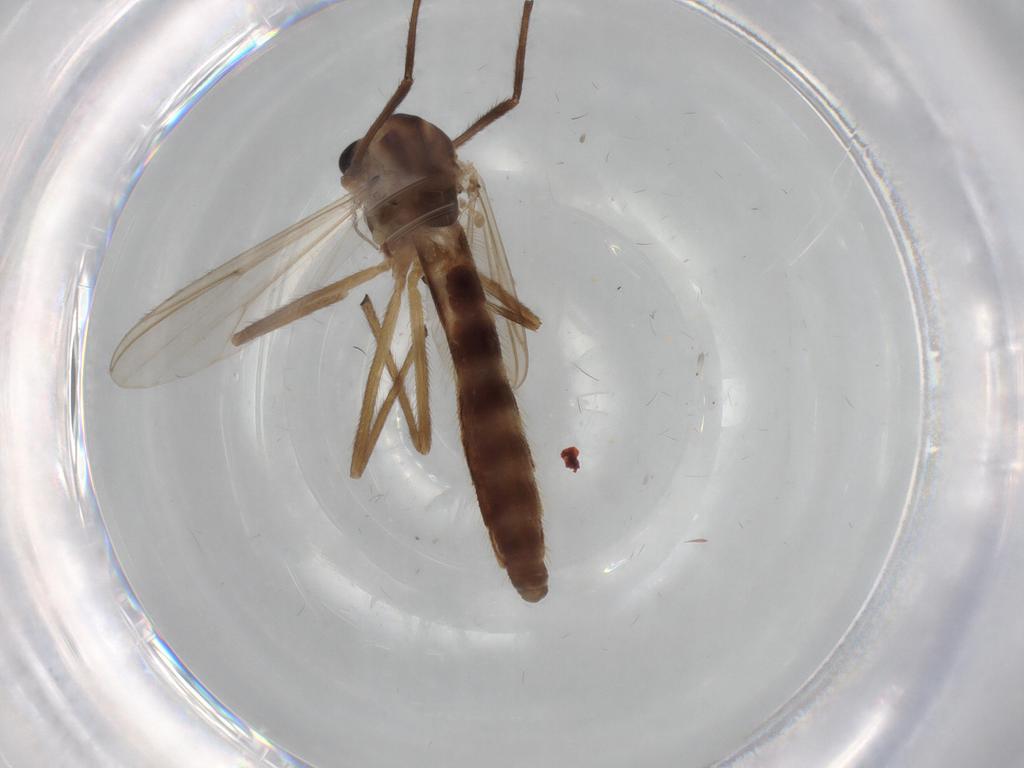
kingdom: Animalia
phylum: Arthropoda
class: Insecta
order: Diptera
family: Chironomidae
